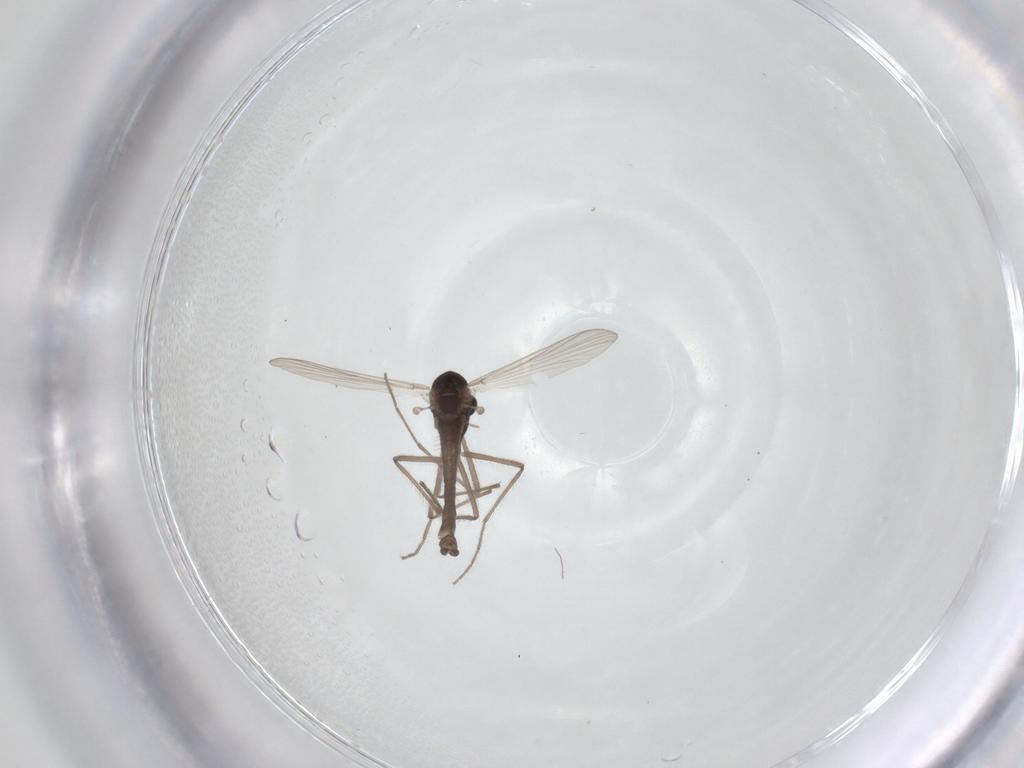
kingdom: Animalia
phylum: Arthropoda
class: Insecta
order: Diptera
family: Chironomidae
